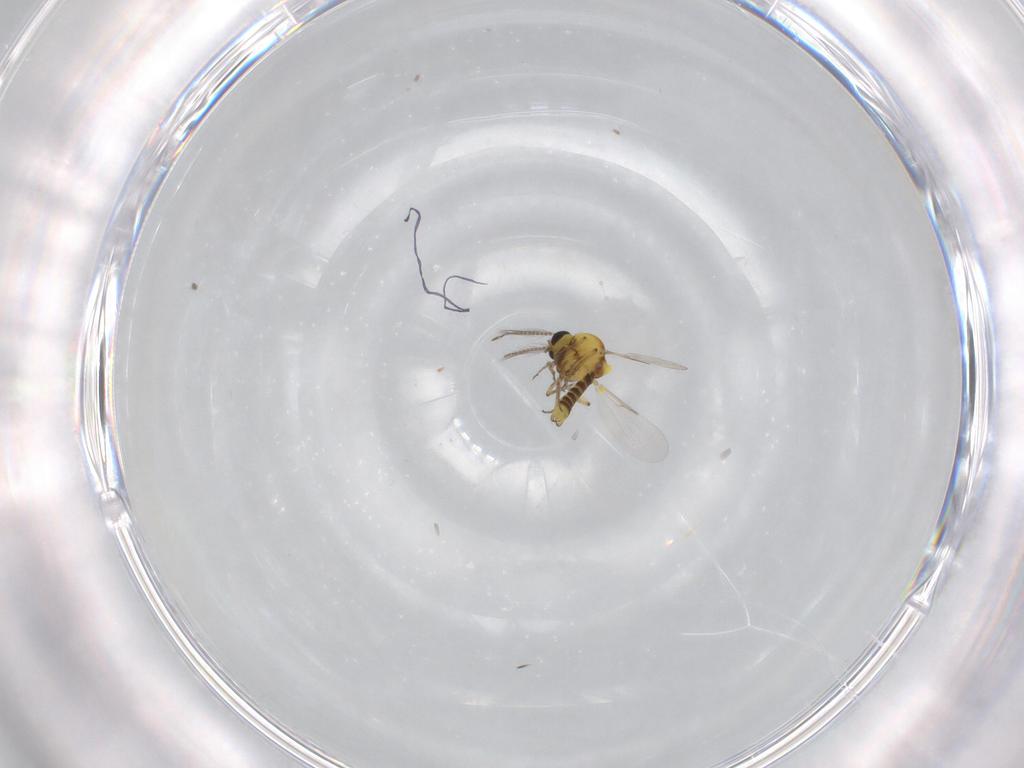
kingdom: Animalia
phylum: Arthropoda
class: Insecta
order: Diptera
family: Ceratopogonidae
